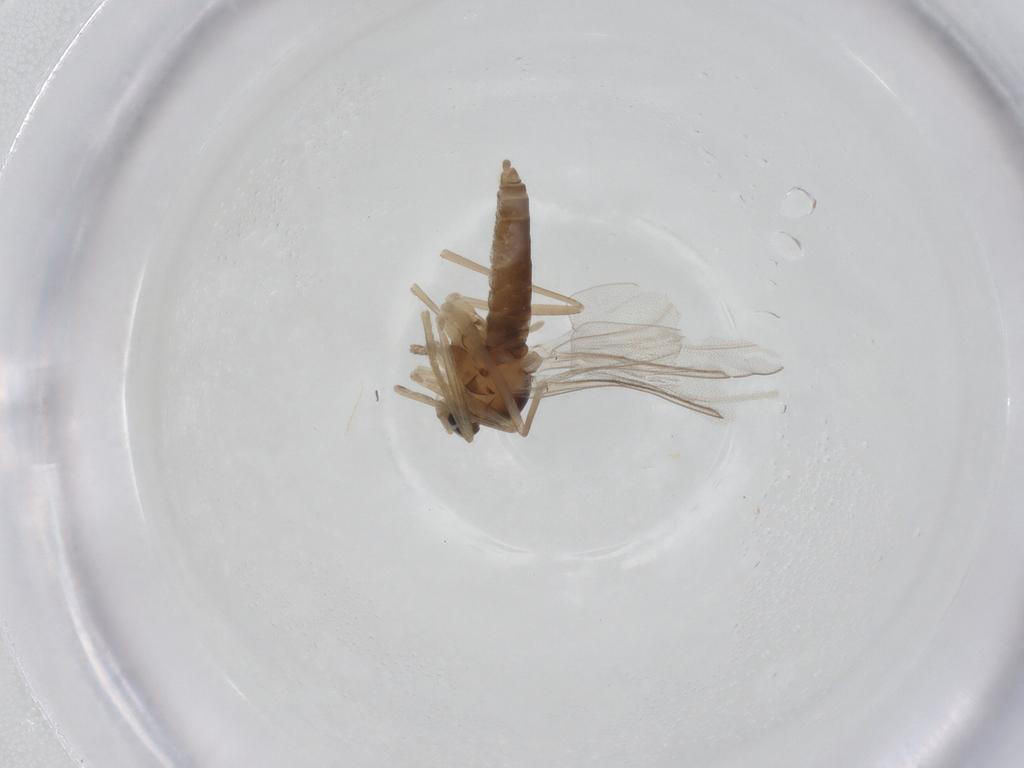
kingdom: Animalia
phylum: Arthropoda
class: Insecta
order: Diptera
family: Cecidomyiidae
